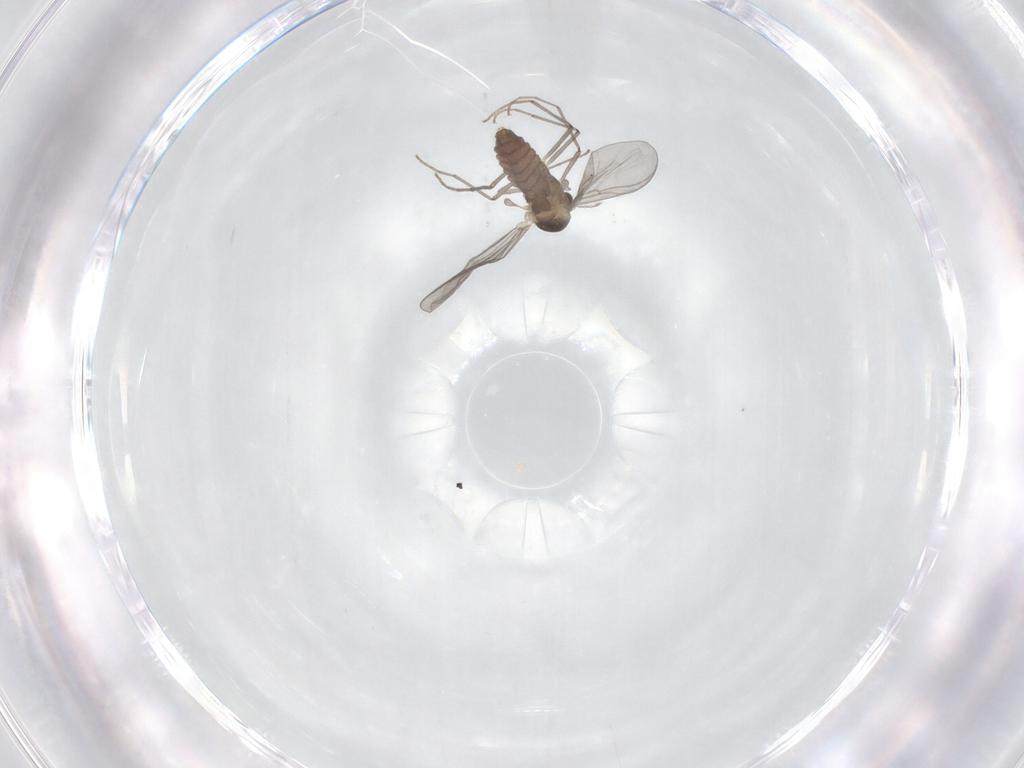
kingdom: Animalia
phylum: Arthropoda
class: Insecta
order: Diptera
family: Sciaridae
